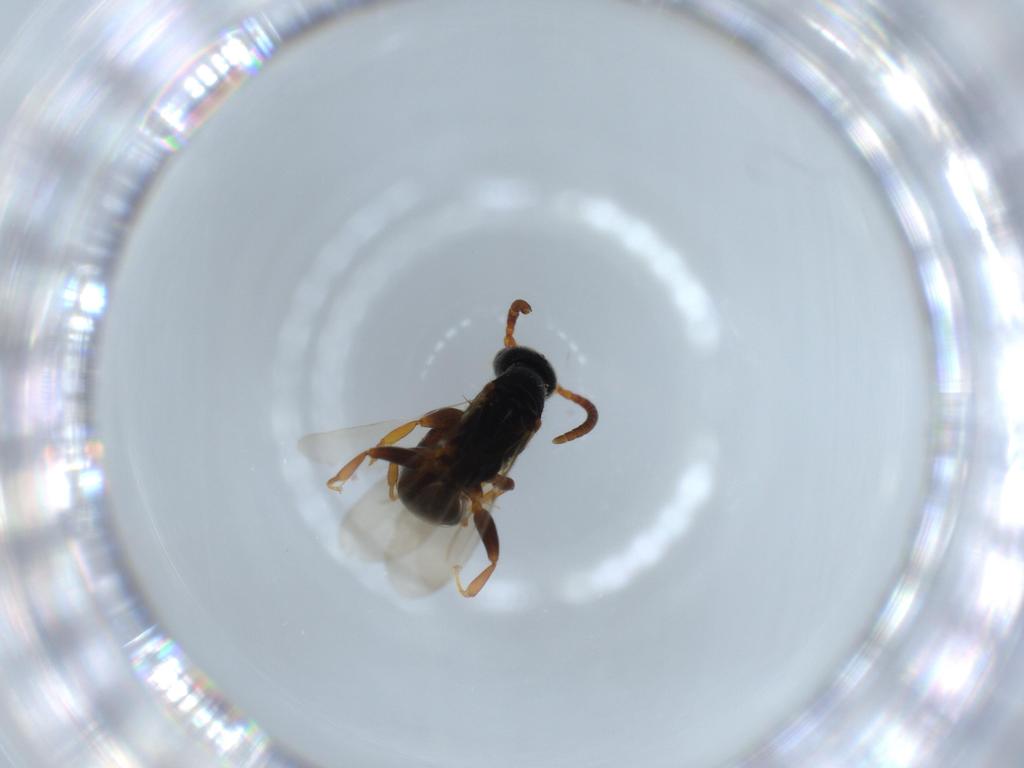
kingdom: Animalia
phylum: Arthropoda
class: Insecta
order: Hymenoptera
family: Bethylidae
